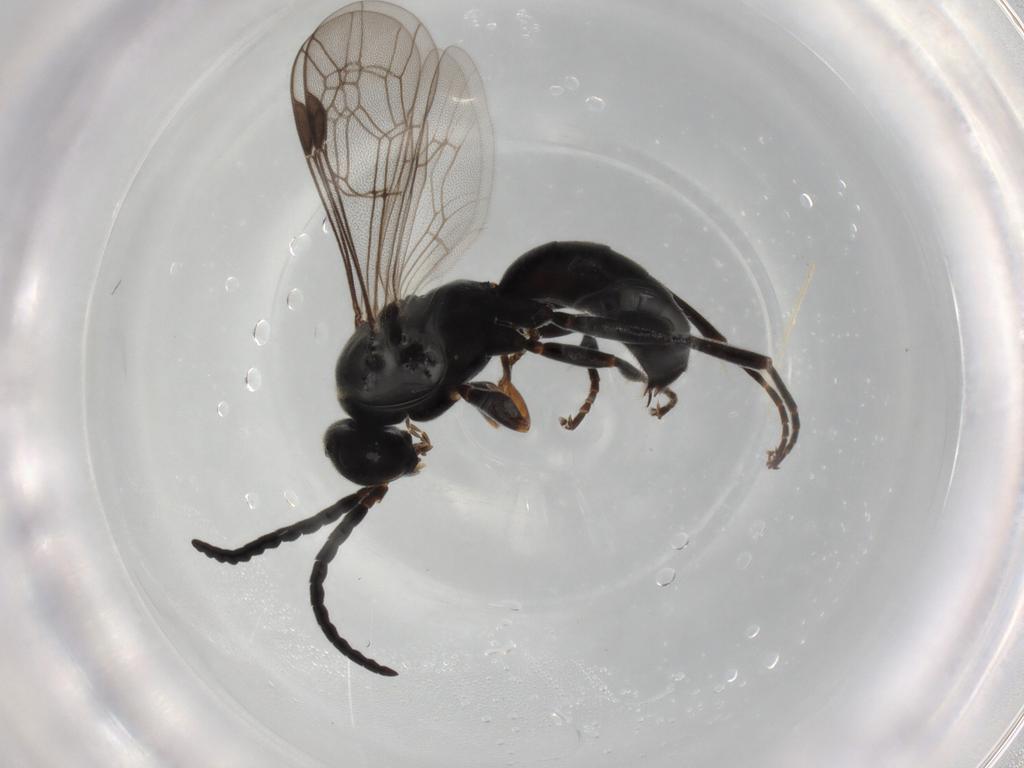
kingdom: Animalia
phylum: Arthropoda
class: Insecta
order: Hymenoptera
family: Pompilidae
